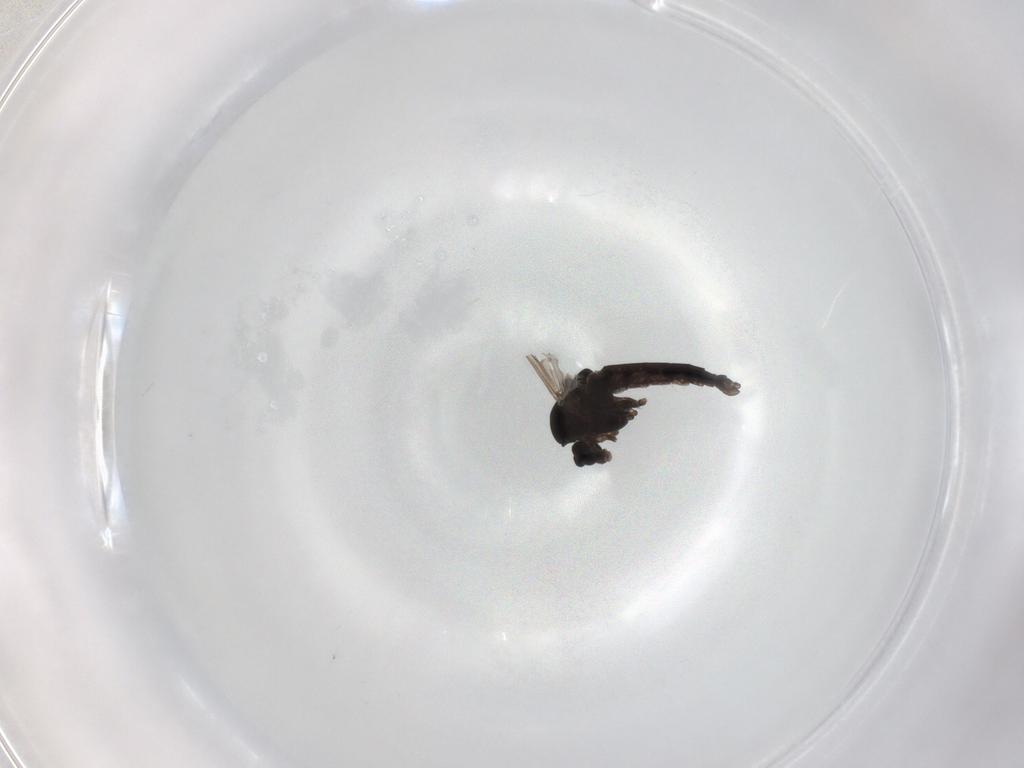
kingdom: Animalia
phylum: Arthropoda
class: Insecta
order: Diptera
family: Chironomidae
